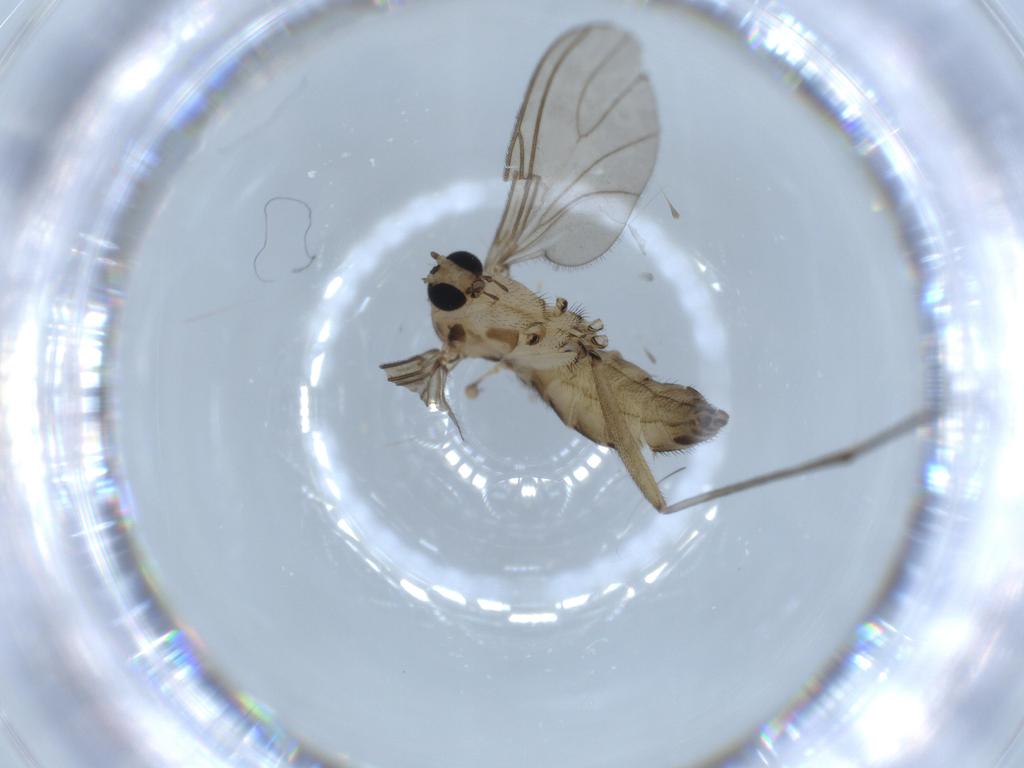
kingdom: Animalia
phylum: Arthropoda
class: Insecta
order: Diptera
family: Sciaridae
